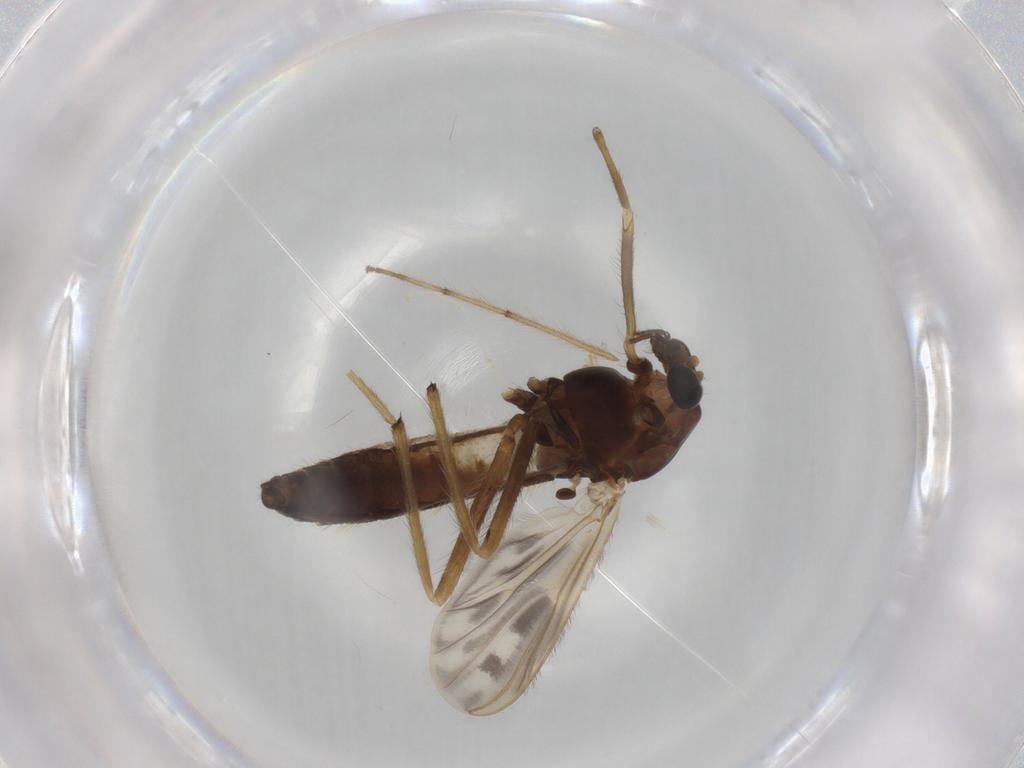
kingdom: Animalia
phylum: Arthropoda
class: Insecta
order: Diptera
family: Chironomidae
